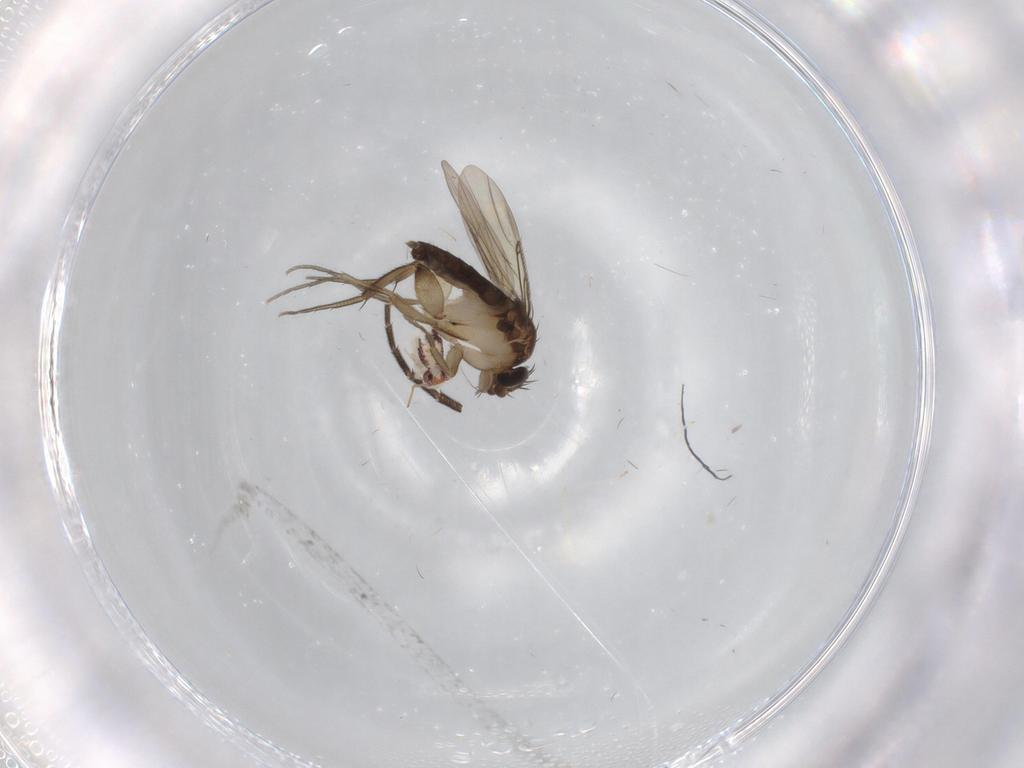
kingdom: Animalia
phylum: Arthropoda
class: Insecta
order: Diptera
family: Phoridae
